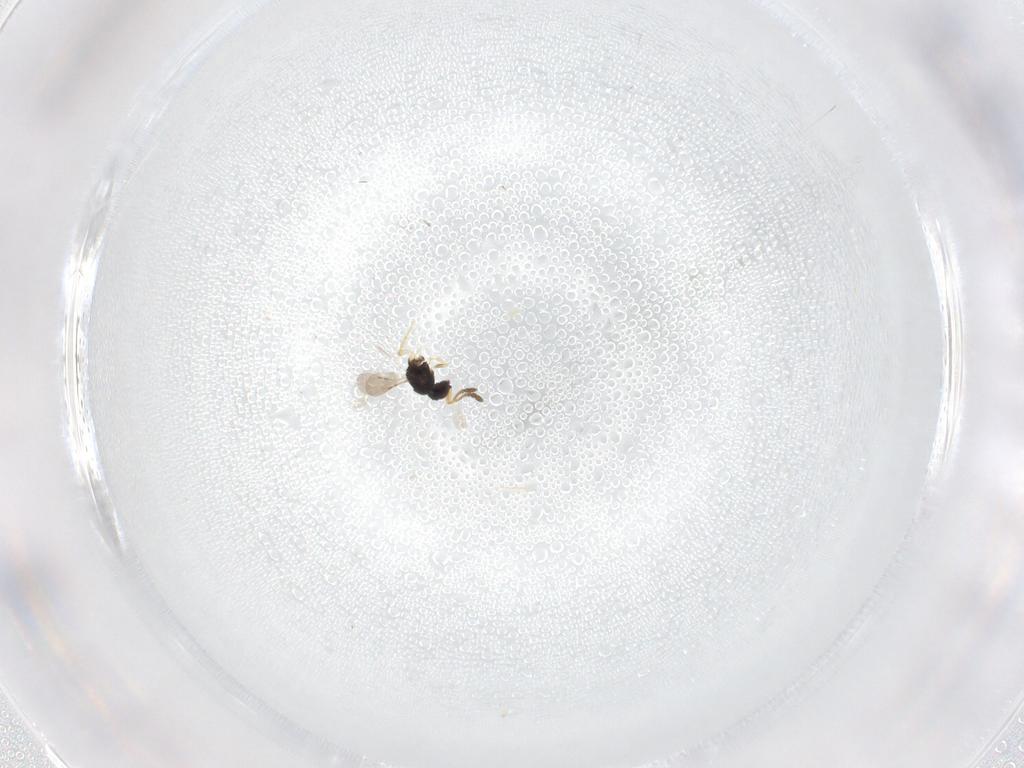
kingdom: Animalia
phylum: Arthropoda
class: Insecta
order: Hymenoptera
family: Ceraphronidae
